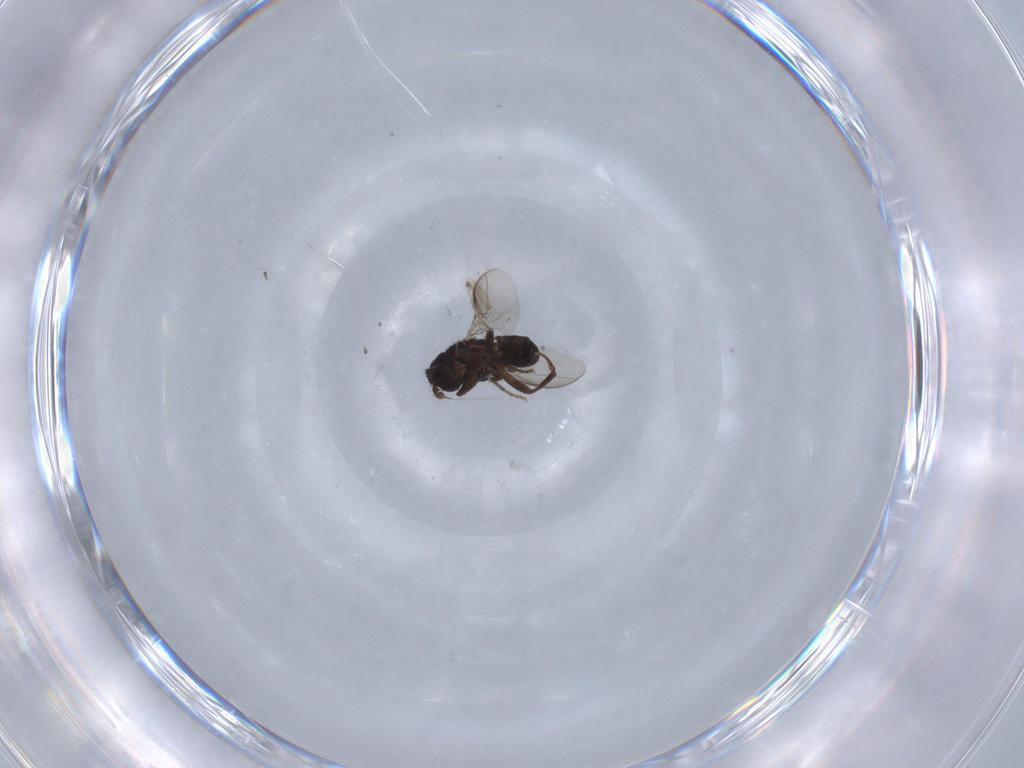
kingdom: Animalia
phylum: Arthropoda
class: Insecta
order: Diptera
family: Sphaeroceridae
